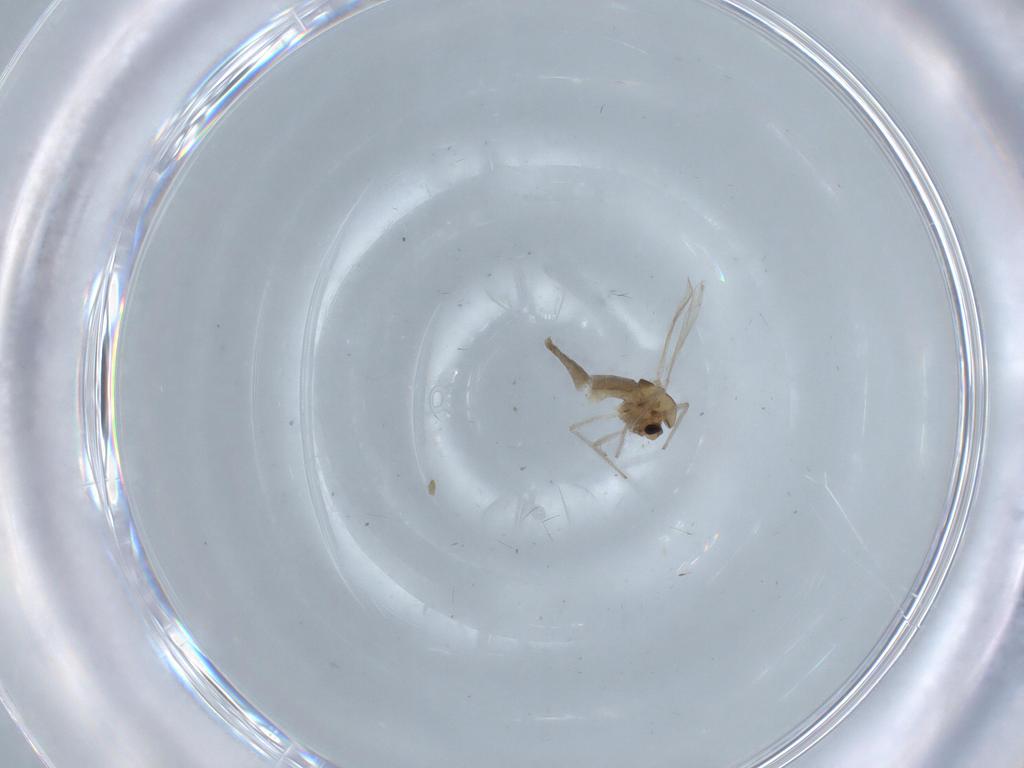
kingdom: Animalia
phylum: Arthropoda
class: Insecta
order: Diptera
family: Chironomidae
